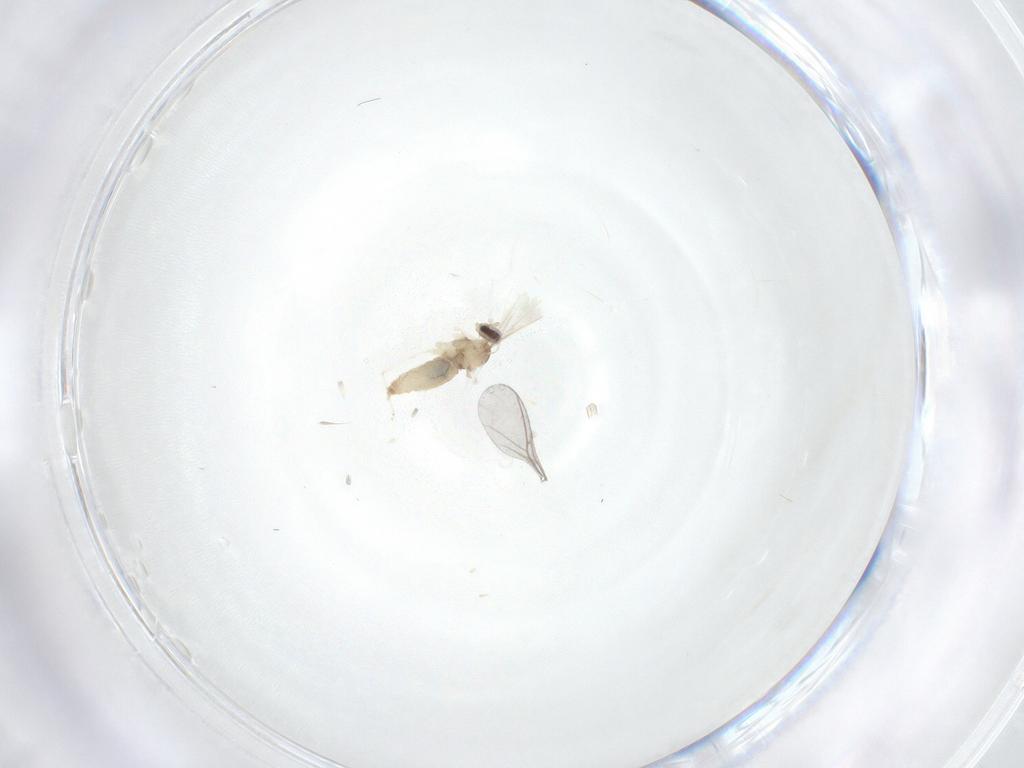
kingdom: Animalia
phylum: Arthropoda
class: Insecta
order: Diptera
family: Cecidomyiidae
